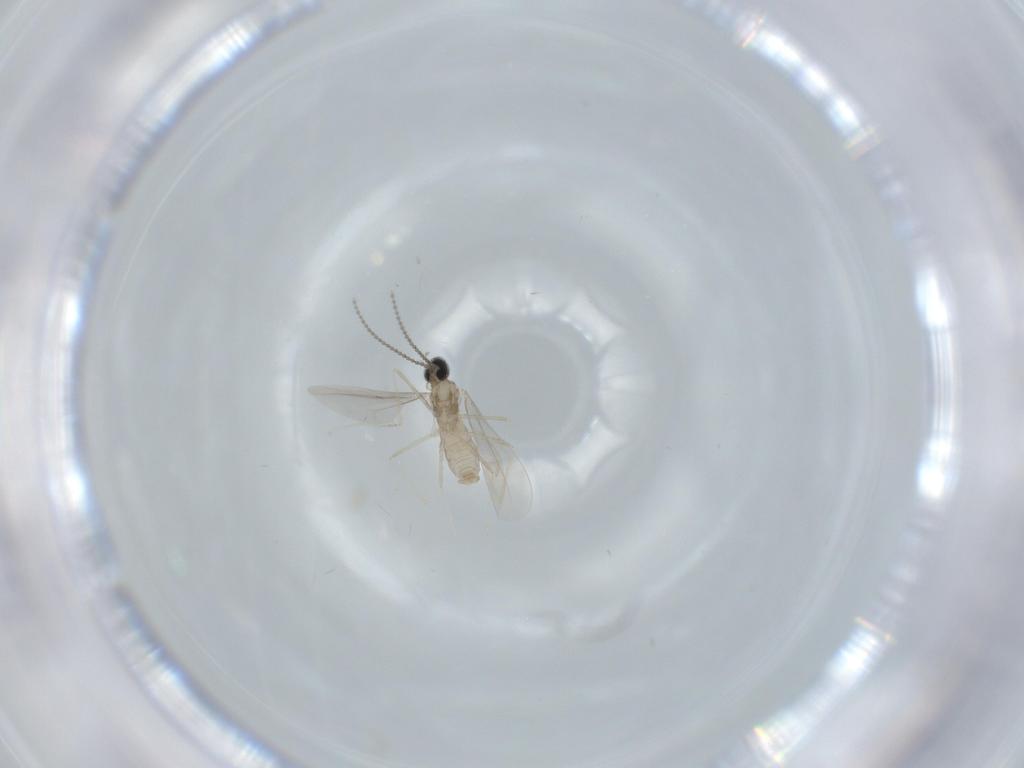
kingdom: Animalia
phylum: Arthropoda
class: Insecta
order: Diptera
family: Cecidomyiidae
